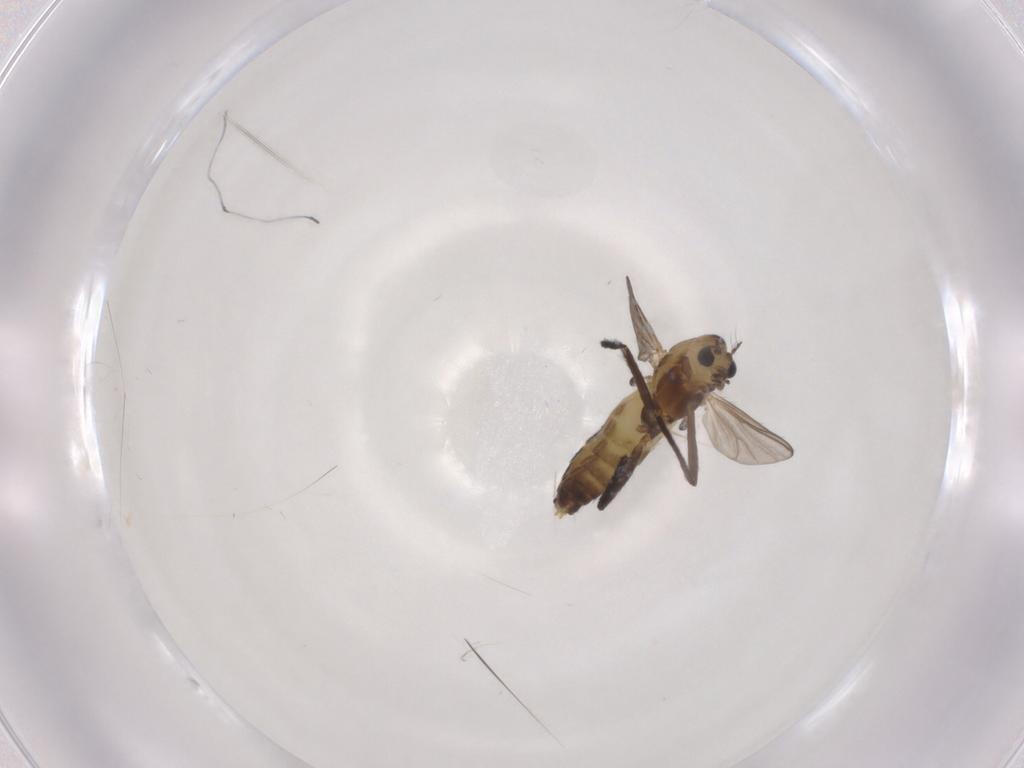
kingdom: Animalia
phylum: Arthropoda
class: Insecta
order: Diptera
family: Chironomidae
